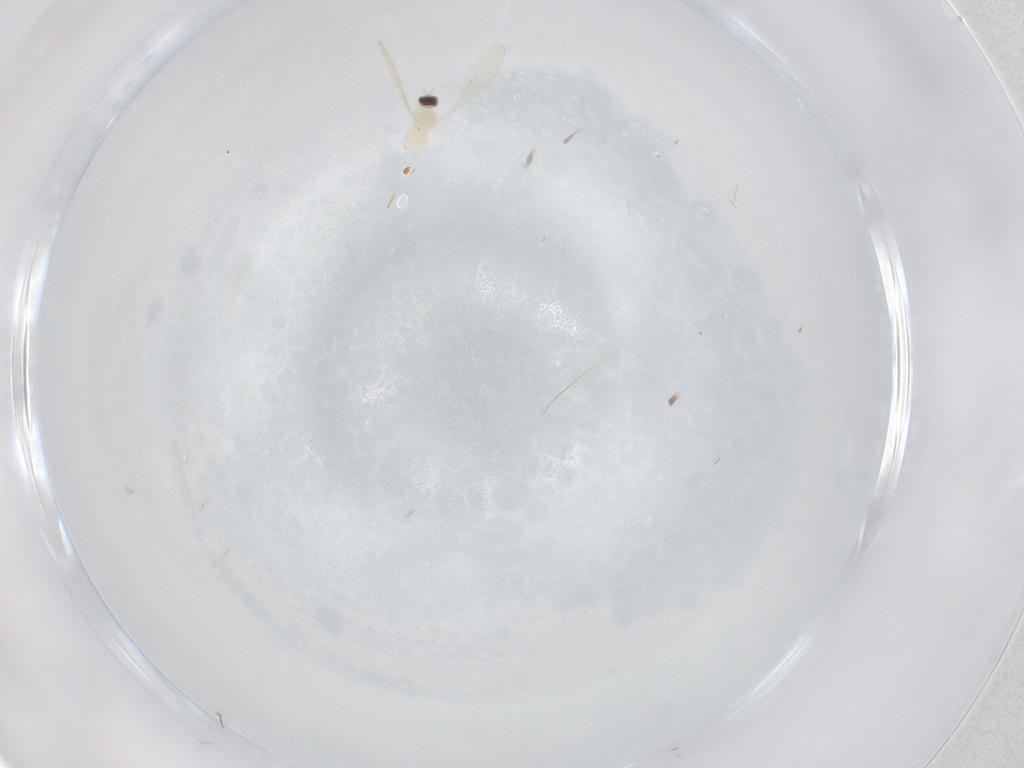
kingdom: Animalia
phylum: Arthropoda
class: Insecta
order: Diptera
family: Cecidomyiidae
